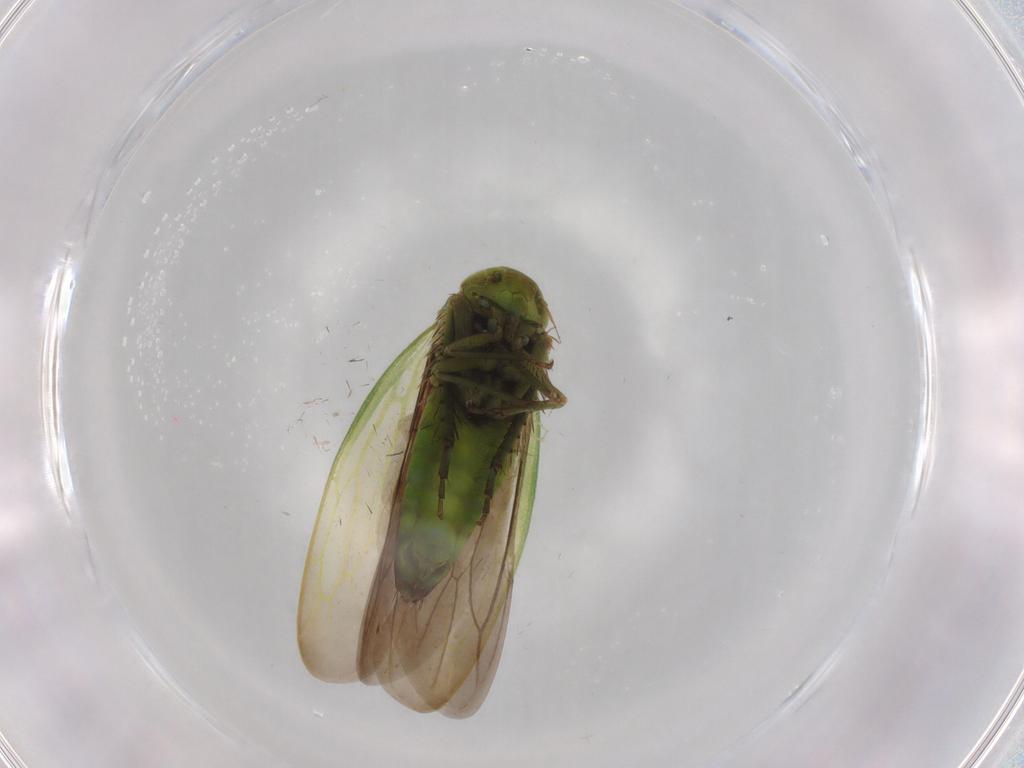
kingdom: Animalia
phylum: Arthropoda
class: Insecta
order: Hemiptera
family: Cicadellidae
